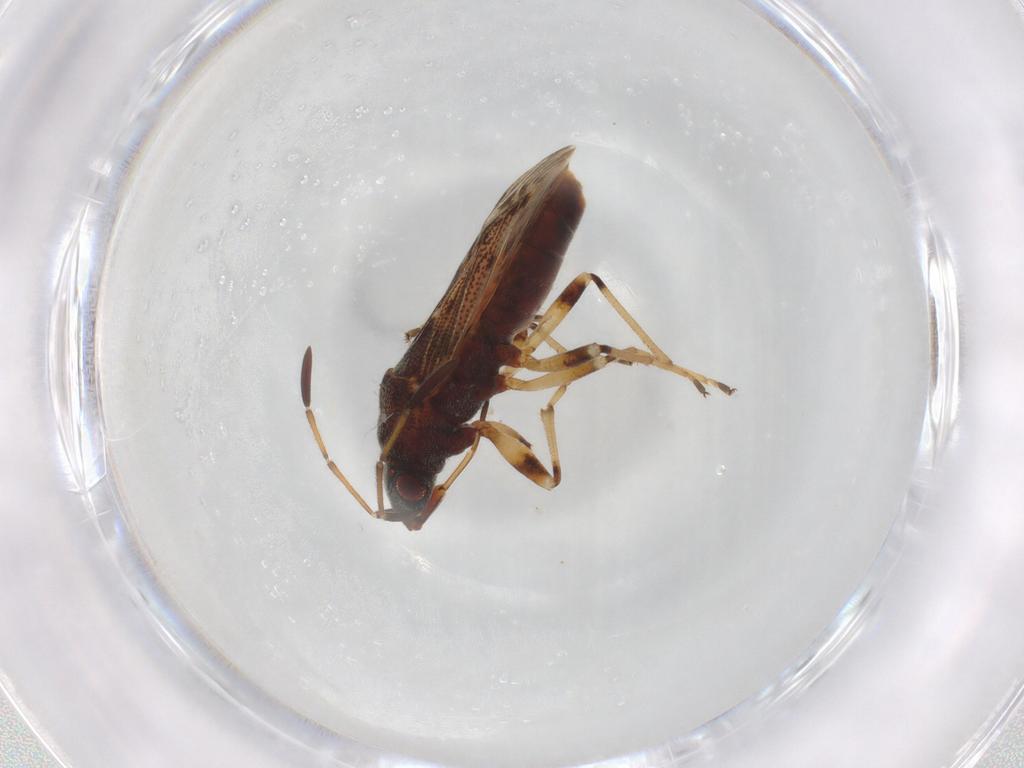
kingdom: Animalia
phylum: Arthropoda
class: Insecta
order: Hemiptera
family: Rhyparochromidae
